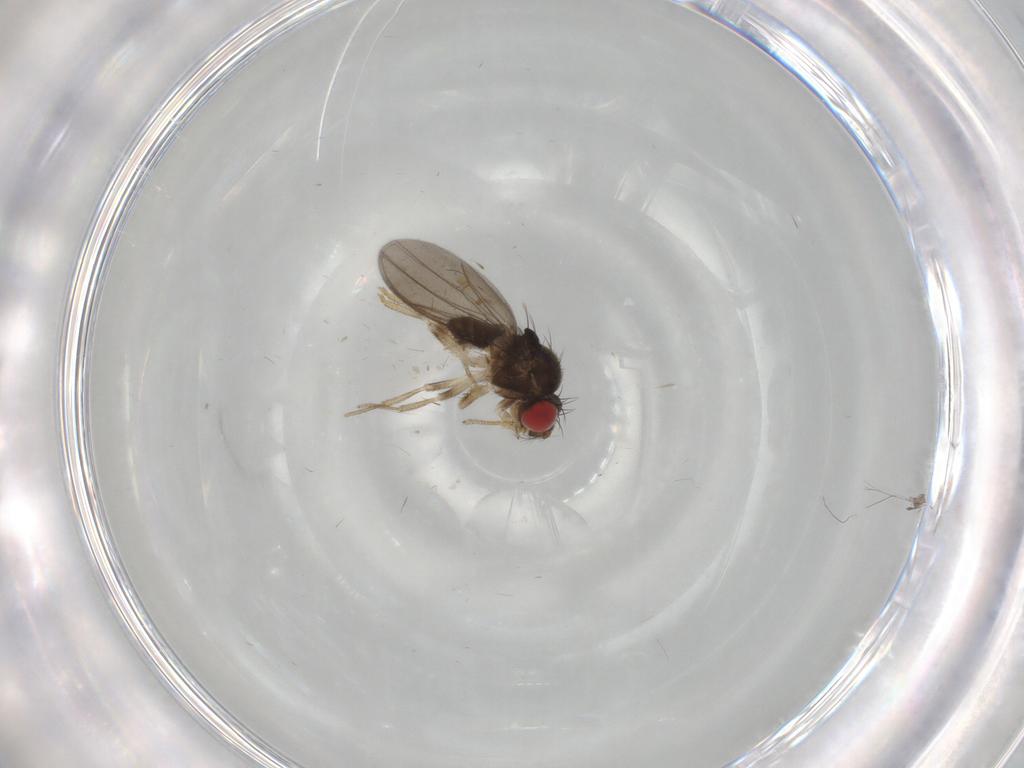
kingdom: Animalia
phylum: Arthropoda
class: Insecta
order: Diptera
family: Drosophilidae
